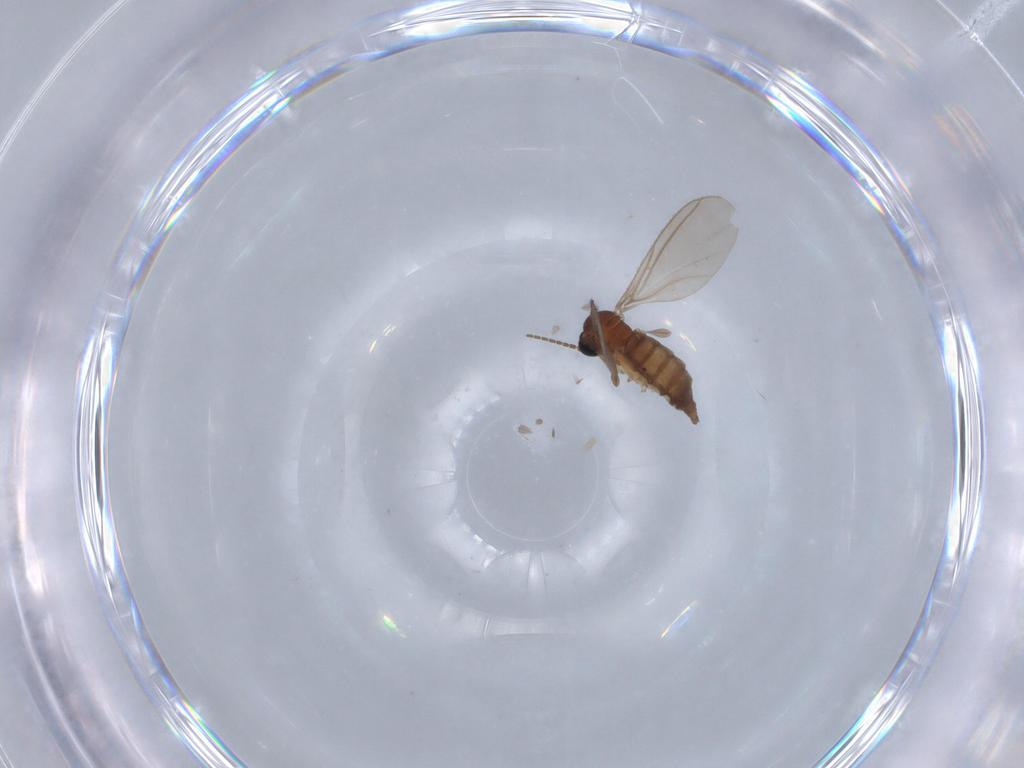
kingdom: Animalia
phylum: Arthropoda
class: Insecta
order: Diptera
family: Sciaridae
